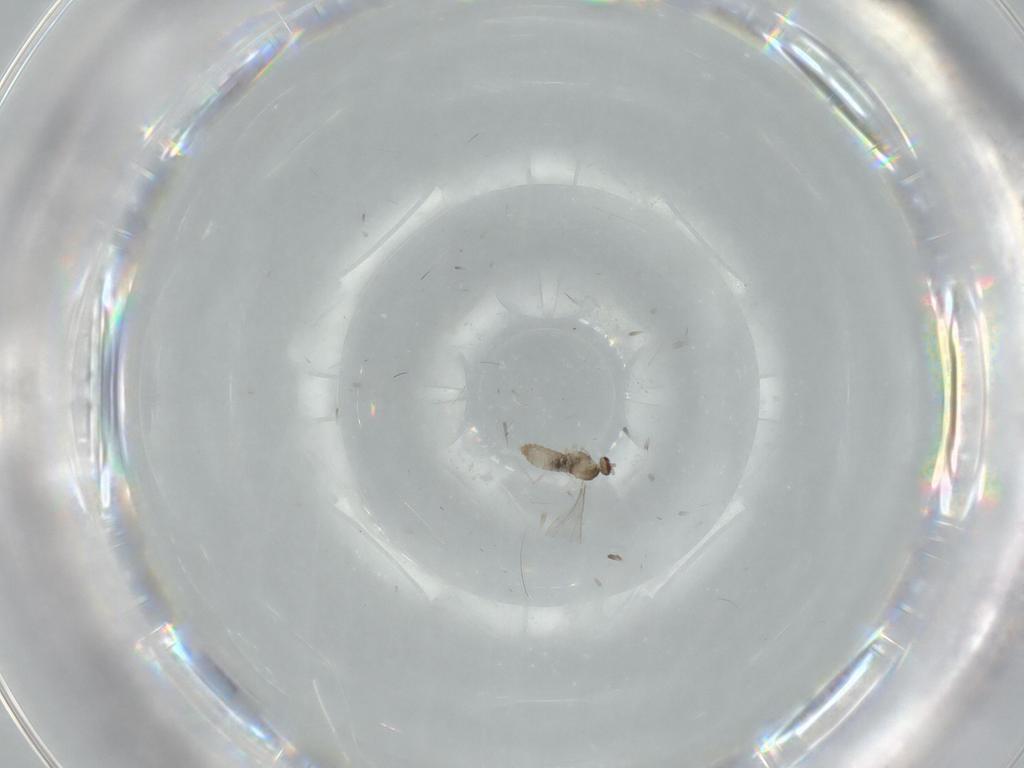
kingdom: Animalia
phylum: Arthropoda
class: Insecta
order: Diptera
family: Cecidomyiidae
